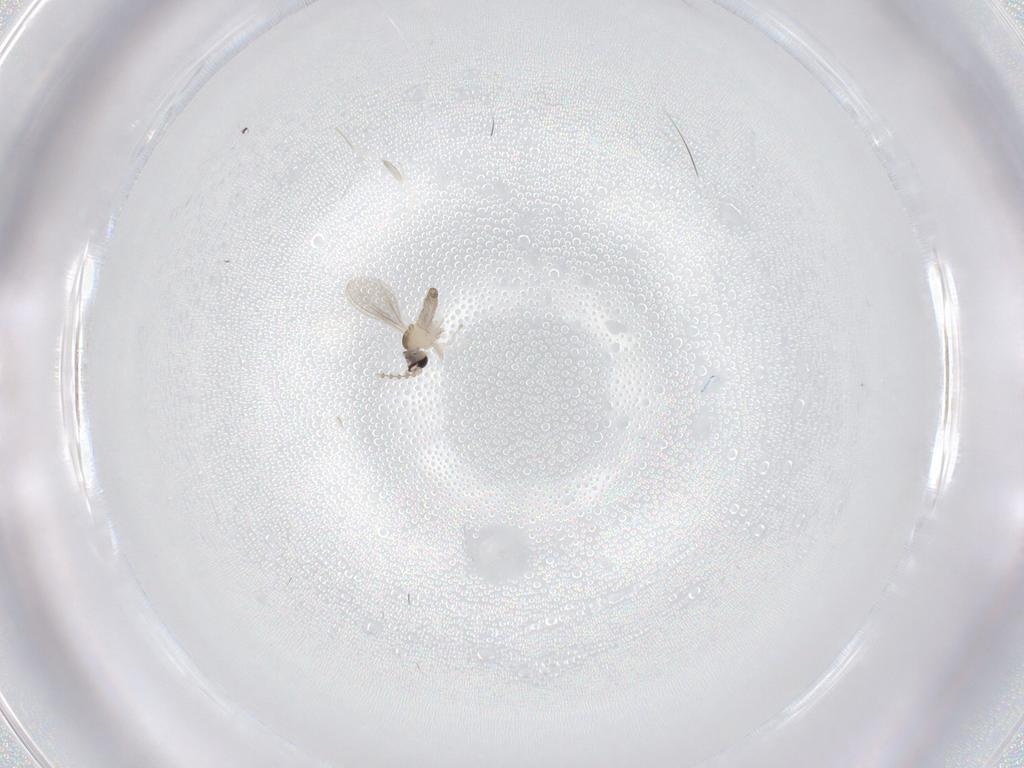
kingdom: Animalia
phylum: Arthropoda
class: Insecta
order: Diptera
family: Cecidomyiidae
